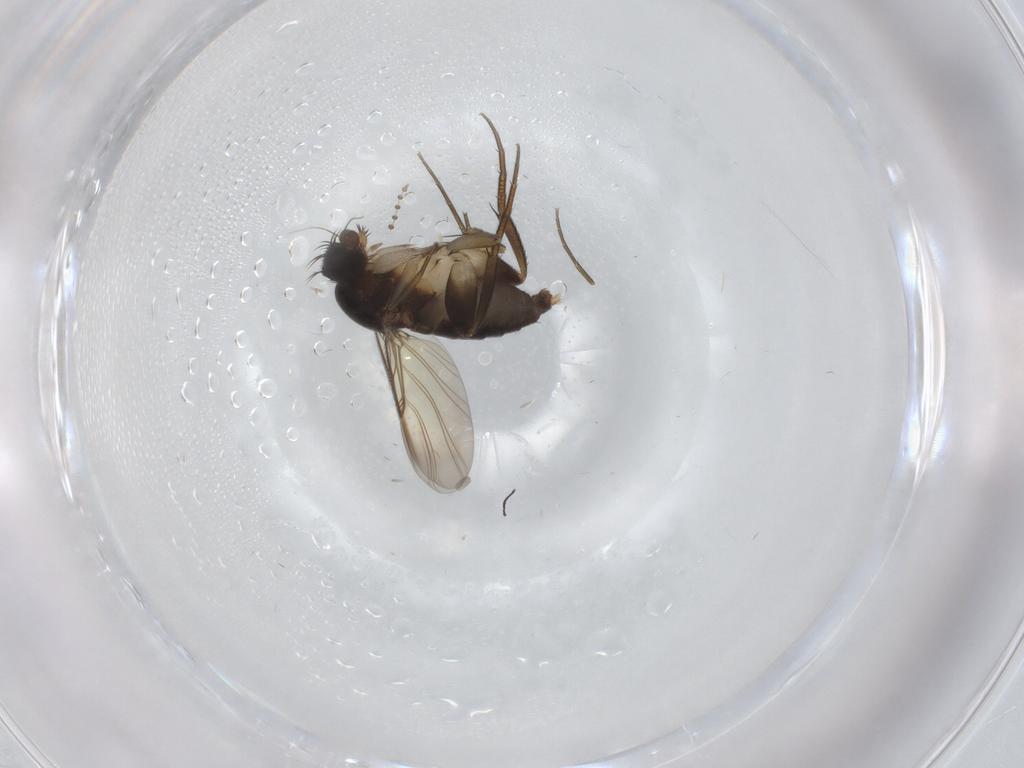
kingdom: Animalia
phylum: Arthropoda
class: Insecta
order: Diptera
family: Phoridae
